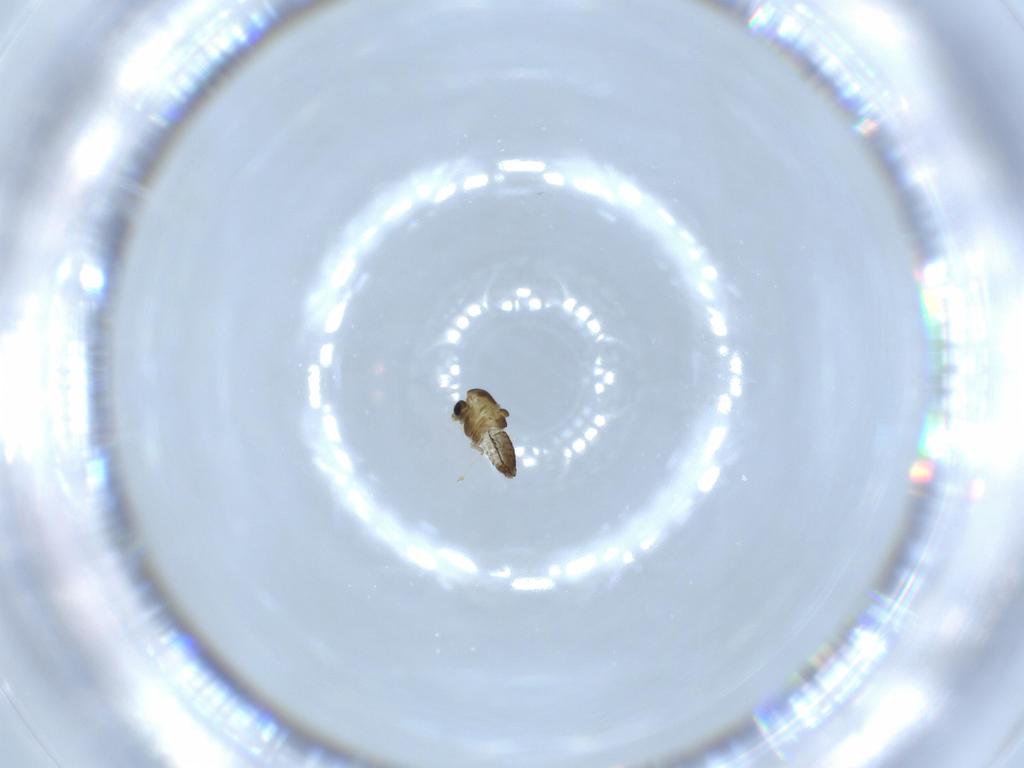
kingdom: Animalia
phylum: Arthropoda
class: Insecta
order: Diptera
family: Chironomidae
